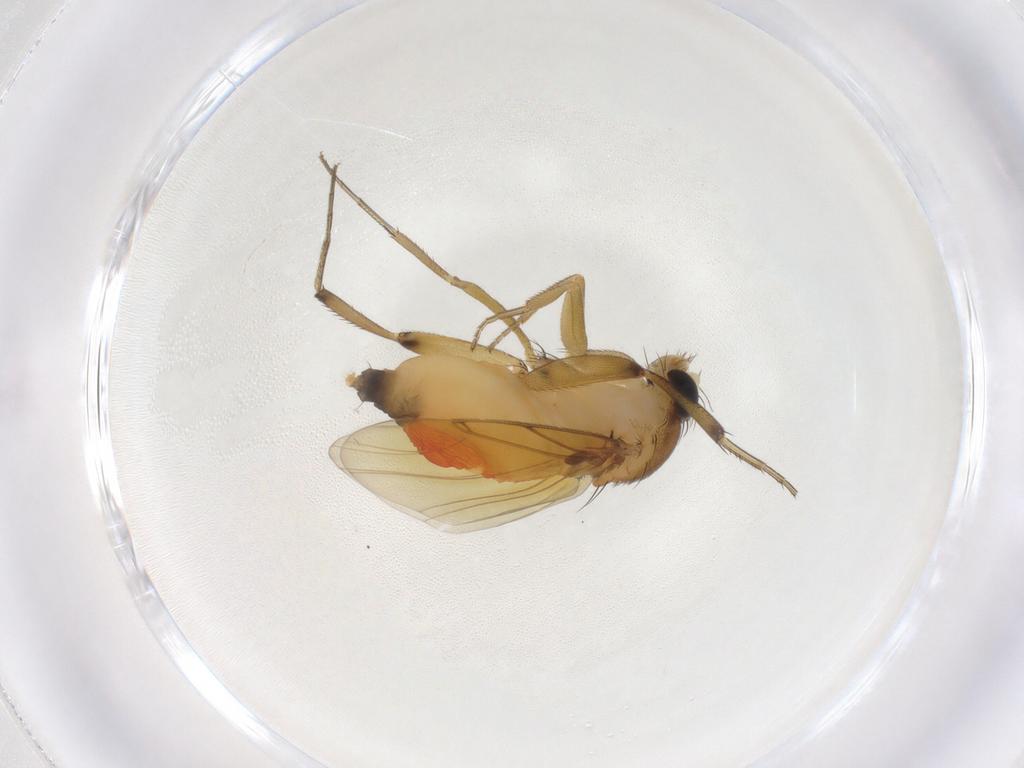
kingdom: Animalia
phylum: Arthropoda
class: Insecta
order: Diptera
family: Phoridae
